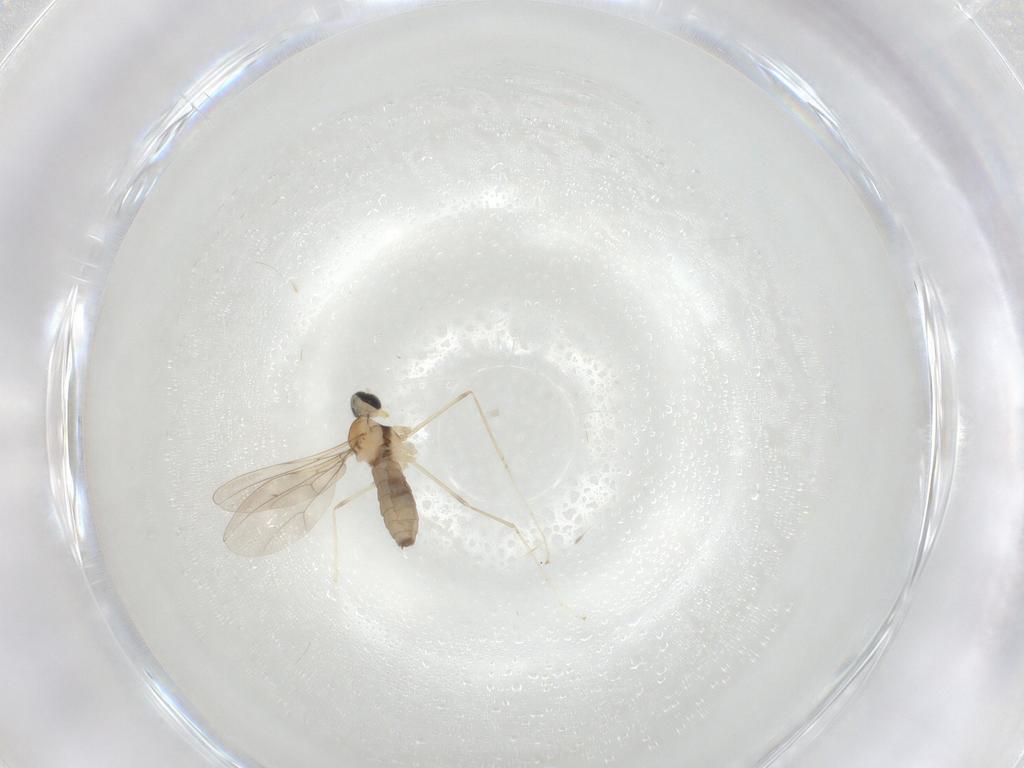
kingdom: Animalia
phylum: Arthropoda
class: Insecta
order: Diptera
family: Cecidomyiidae
